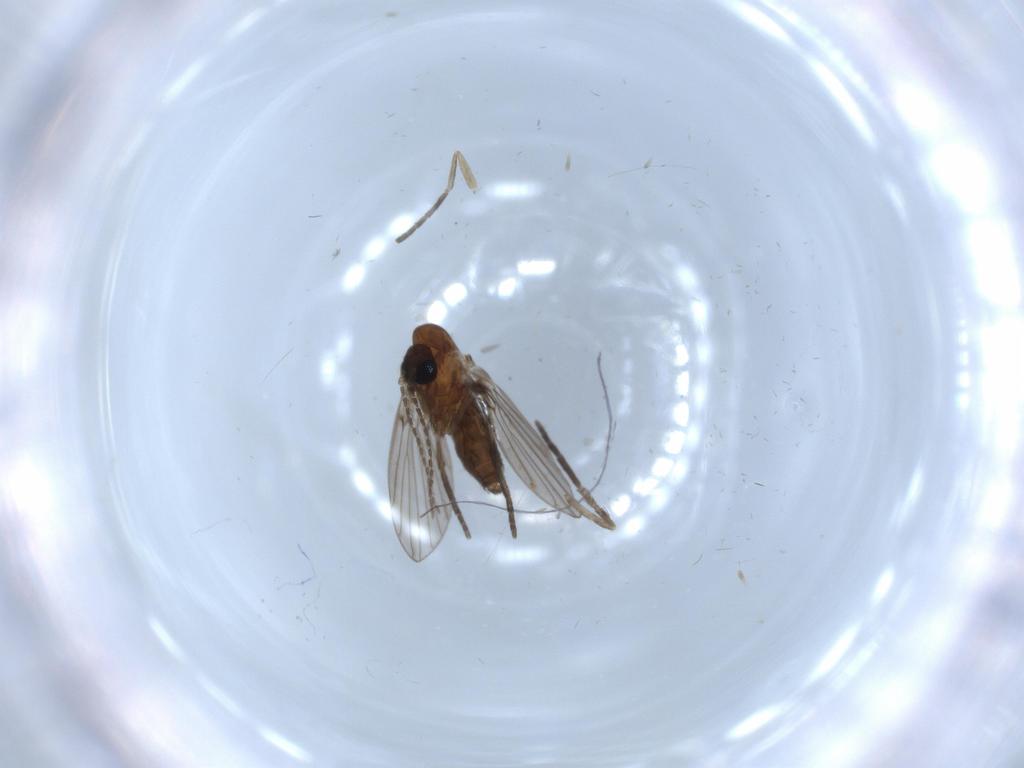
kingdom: Animalia
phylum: Arthropoda
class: Insecta
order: Diptera
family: Psychodidae
